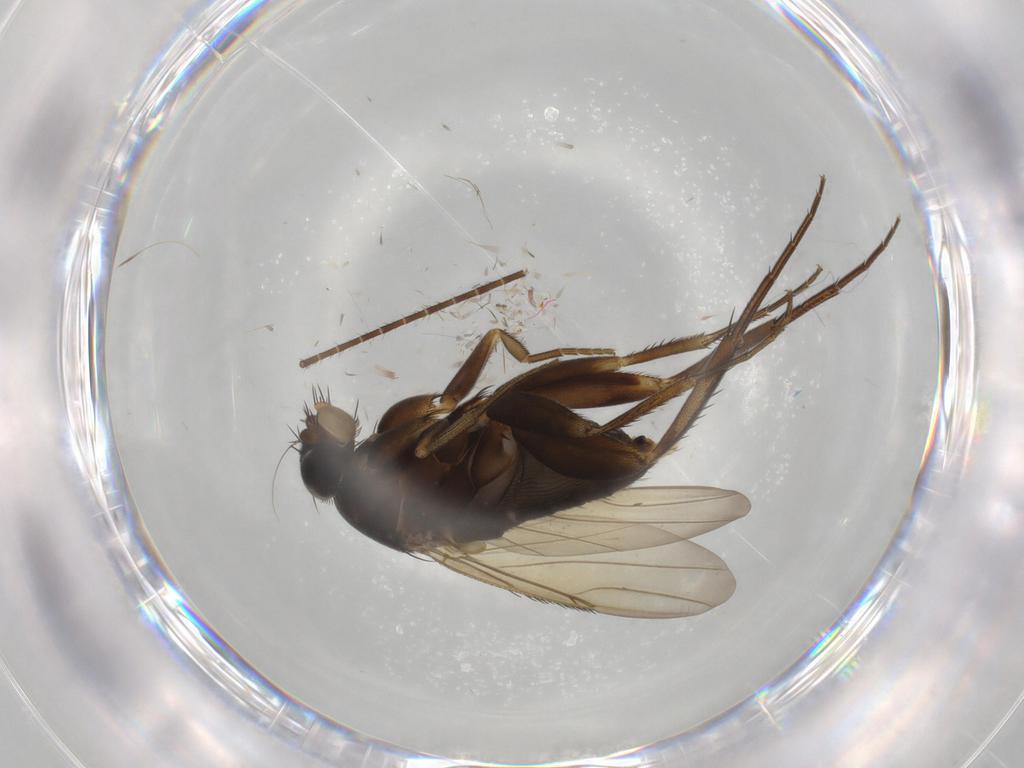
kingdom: Animalia
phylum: Arthropoda
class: Insecta
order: Diptera
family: Phoridae
